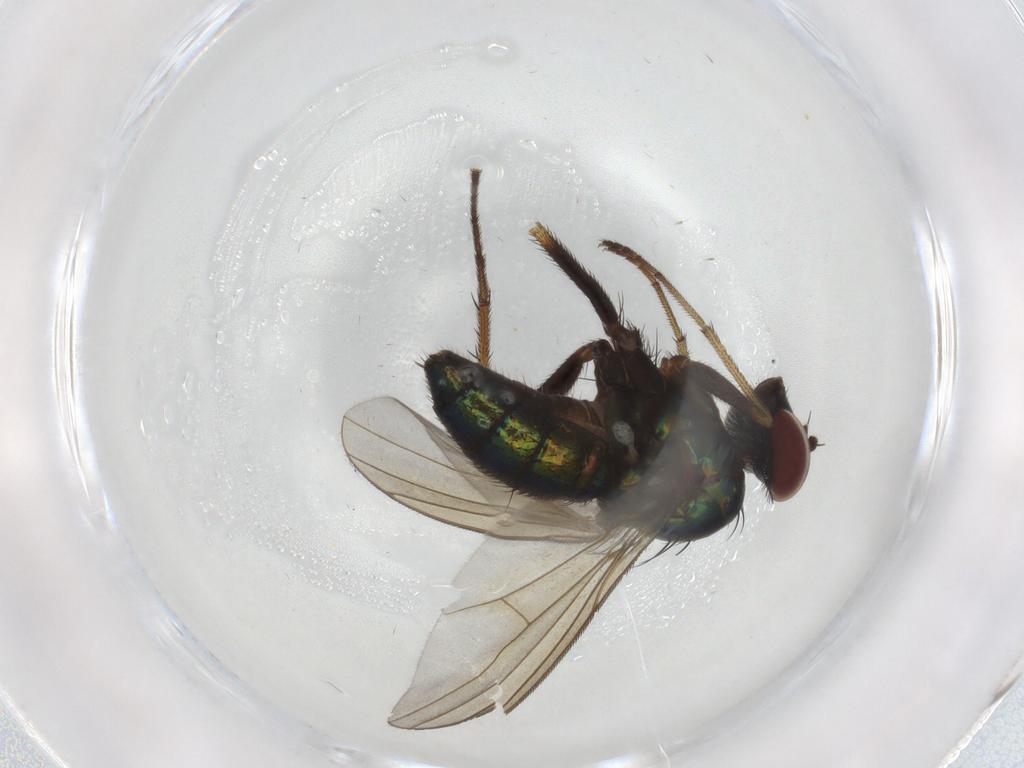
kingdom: Animalia
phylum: Arthropoda
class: Insecta
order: Diptera
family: Dolichopodidae
